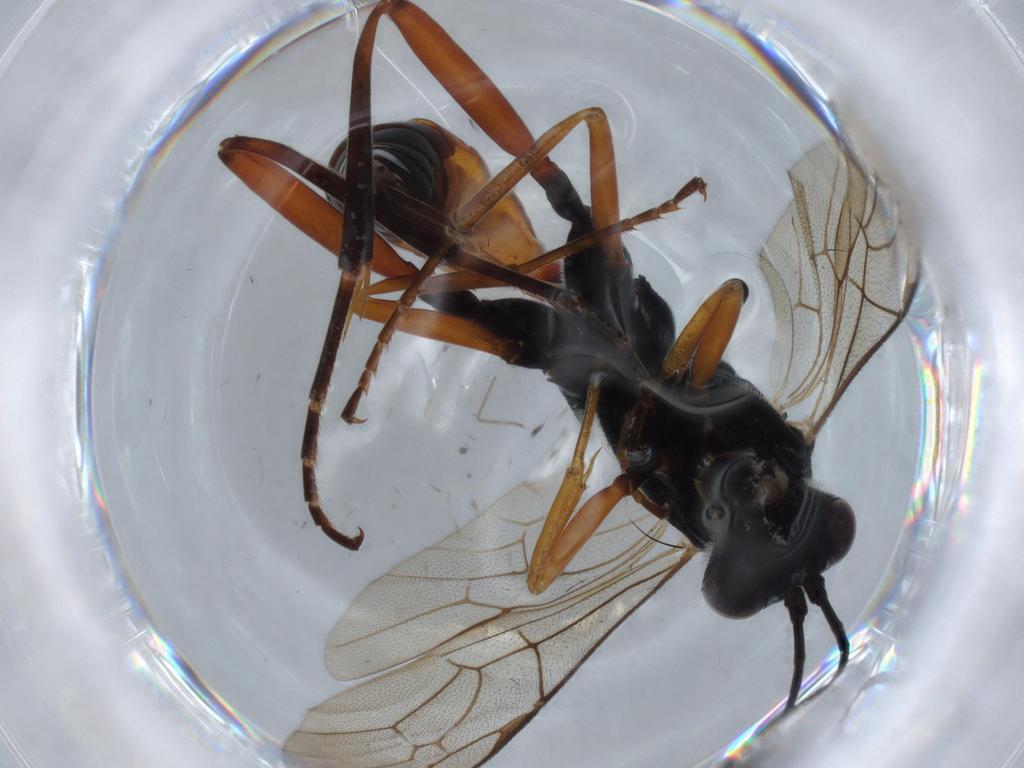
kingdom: Animalia
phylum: Arthropoda
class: Insecta
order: Hymenoptera
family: Ichneumonidae
